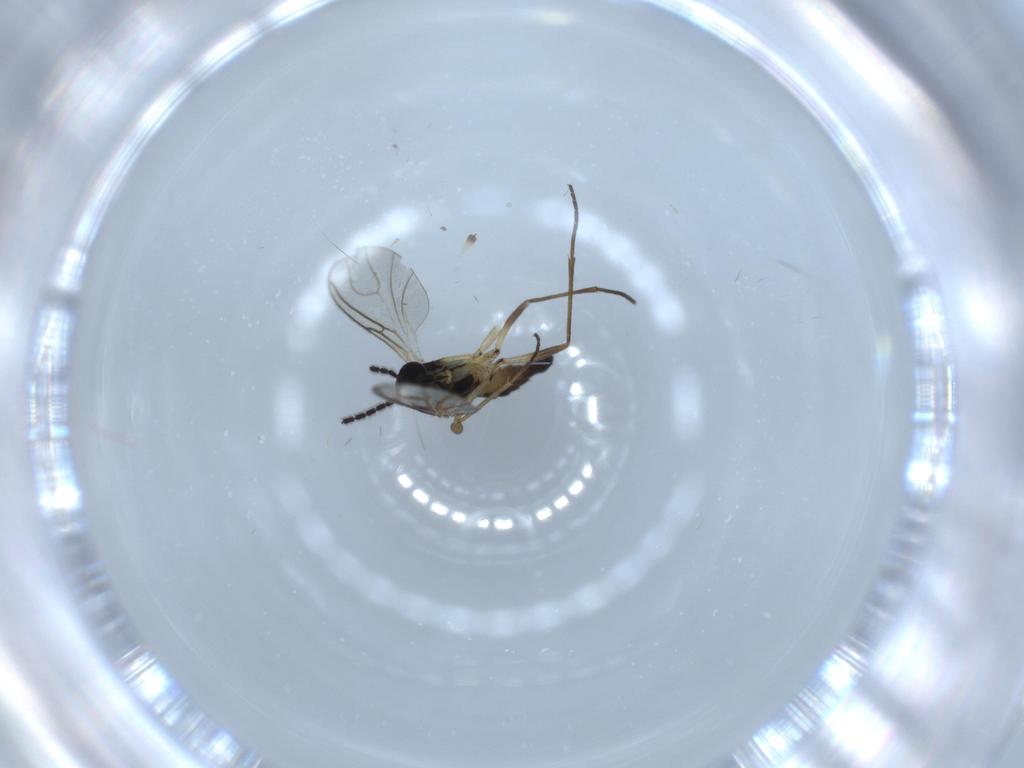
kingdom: Animalia
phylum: Arthropoda
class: Insecta
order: Diptera
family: Sciaridae
